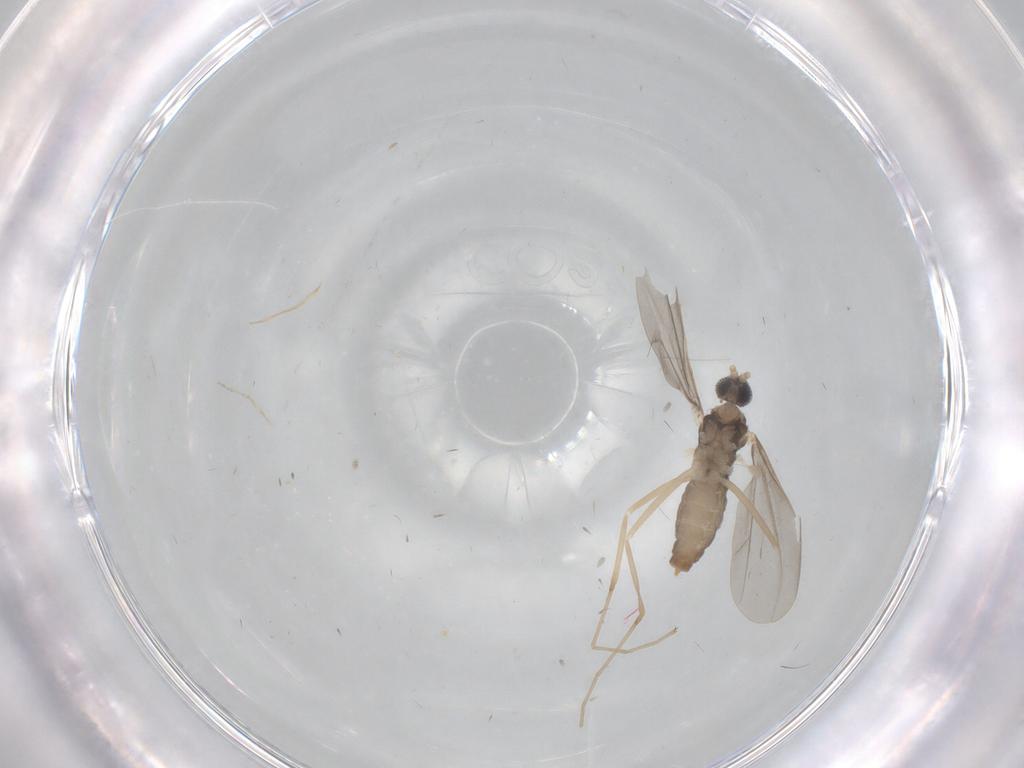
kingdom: Animalia
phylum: Arthropoda
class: Insecta
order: Diptera
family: Cecidomyiidae
